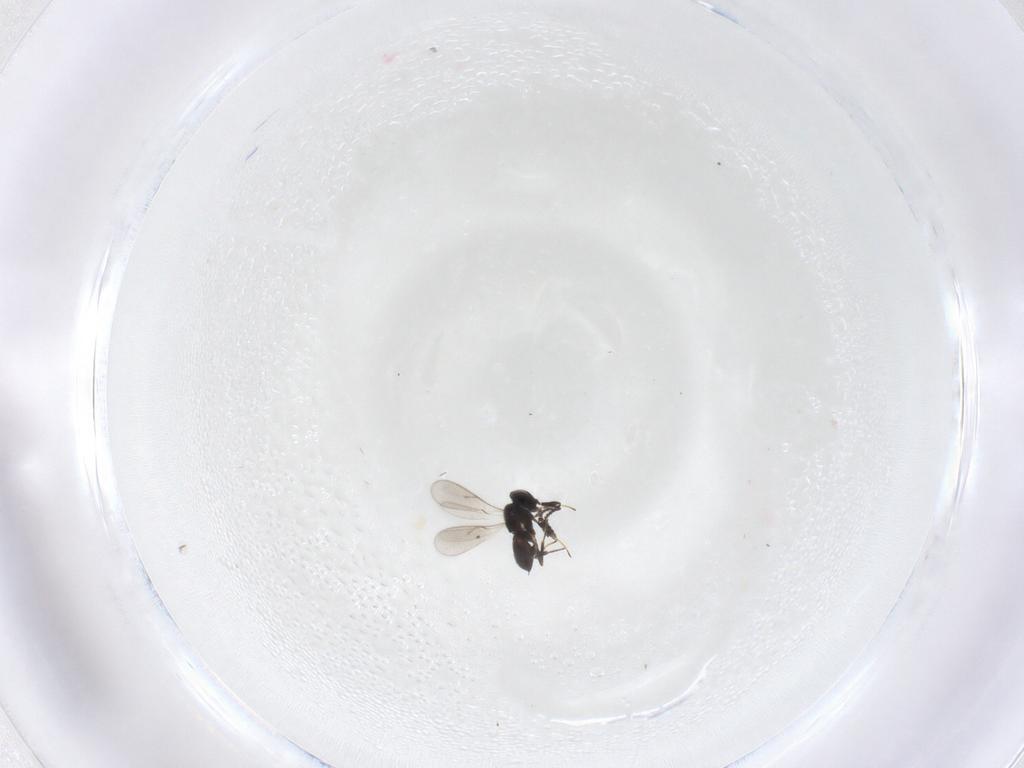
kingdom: Animalia
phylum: Arthropoda
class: Insecta
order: Hymenoptera
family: Scelionidae
